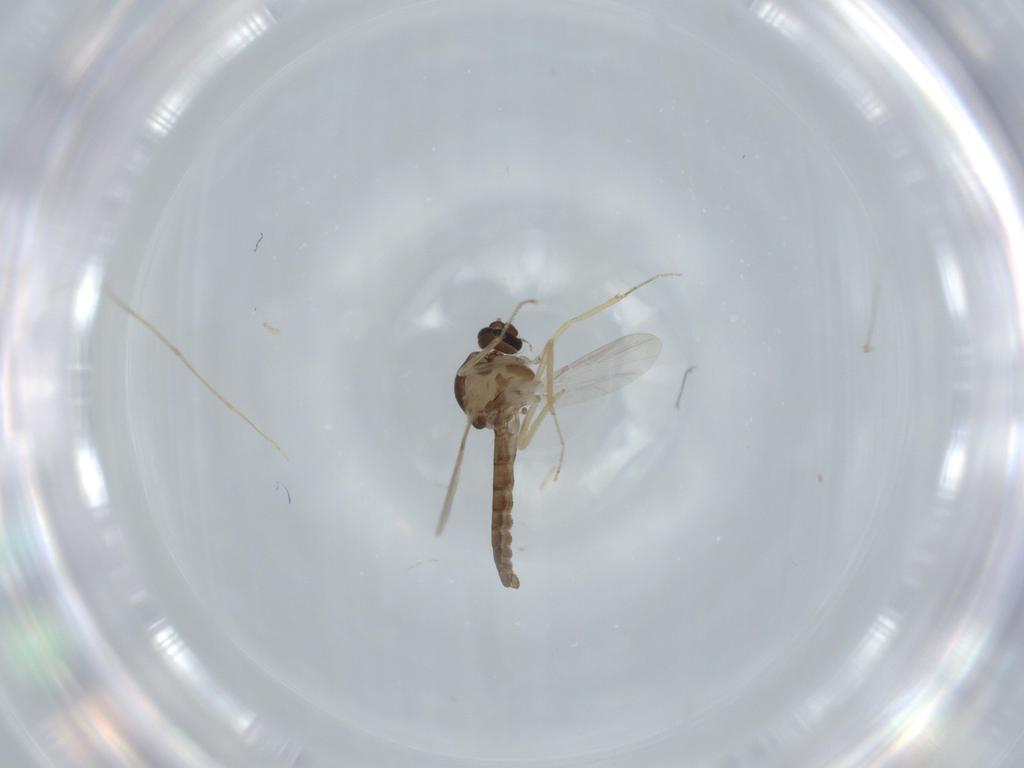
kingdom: Animalia
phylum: Arthropoda
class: Insecta
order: Diptera
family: Ceratopogonidae
